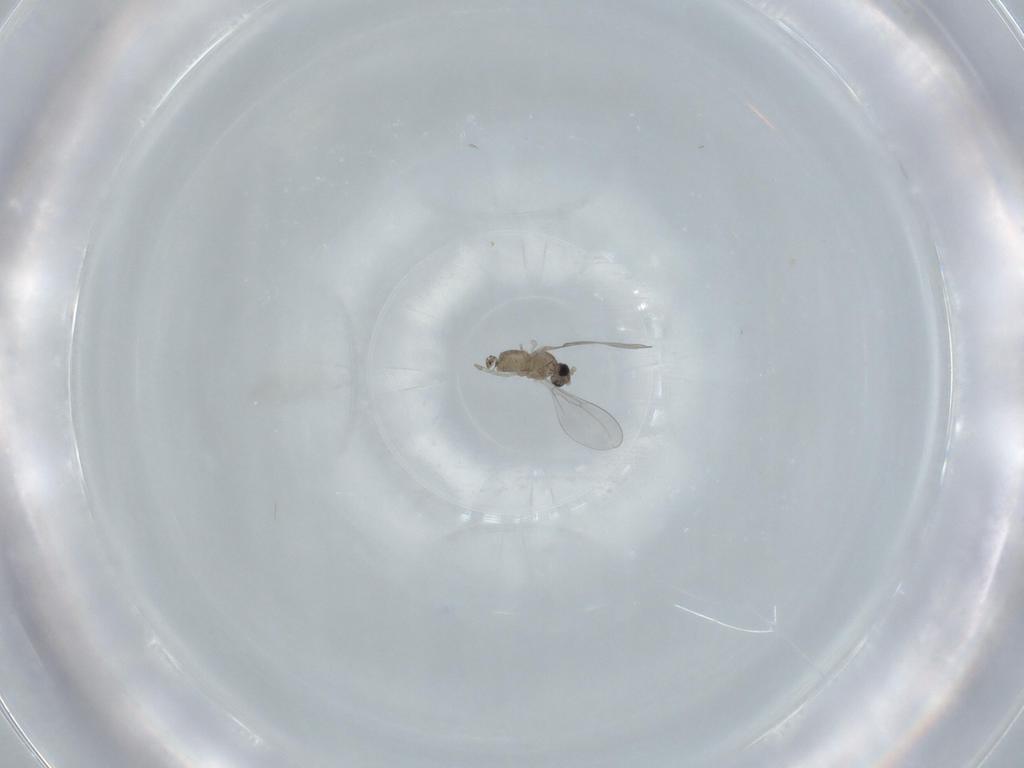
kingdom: Animalia
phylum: Arthropoda
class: Insecta
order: Diptera
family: Cecidomyiidae
